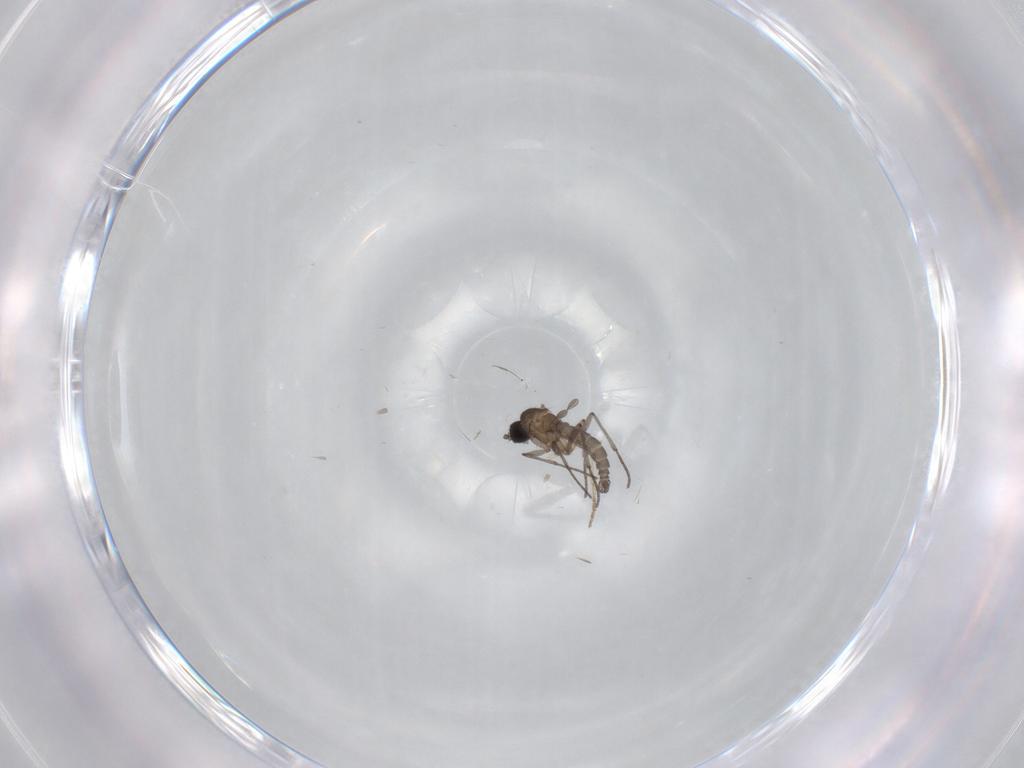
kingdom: Animalia
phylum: Arthropoda
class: Insecta
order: Diptera
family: Sciaridae
